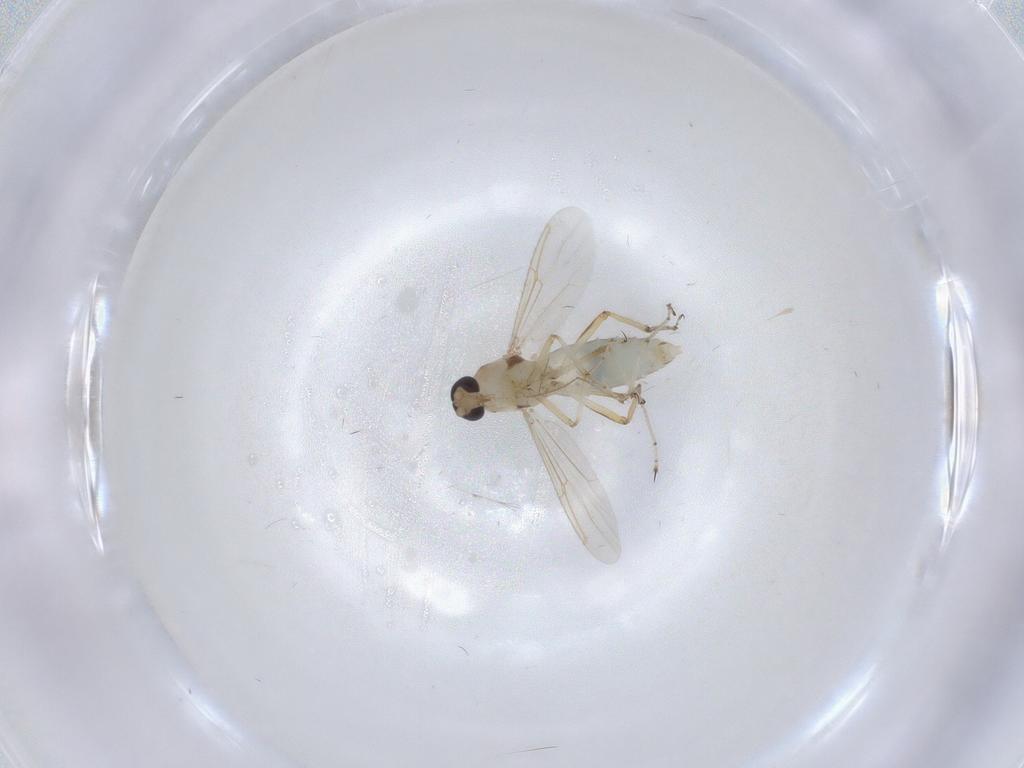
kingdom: Animalia
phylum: Arthropoda
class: Insecta
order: Diptera
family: Ceratopogonidae
